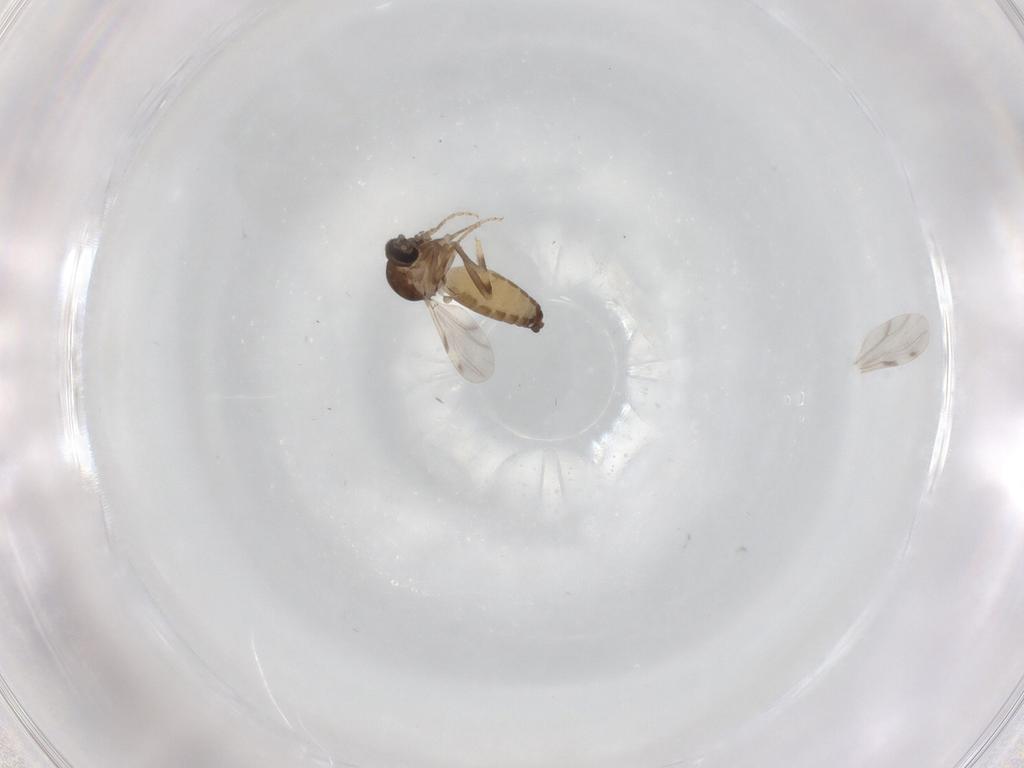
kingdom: Animalia
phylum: Arthropoda
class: Insecta
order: Diptera
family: Ceratopogonidae
